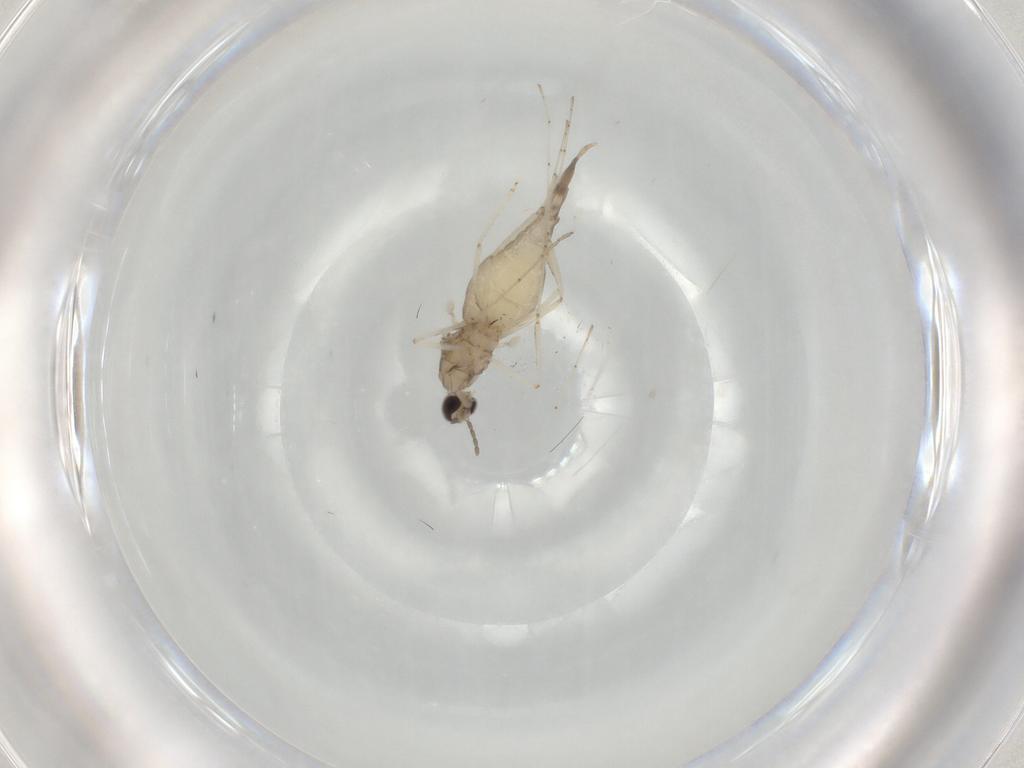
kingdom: Animalia
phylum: Arthropoda
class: Insecta
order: Diptera
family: Cecidomyiidae
